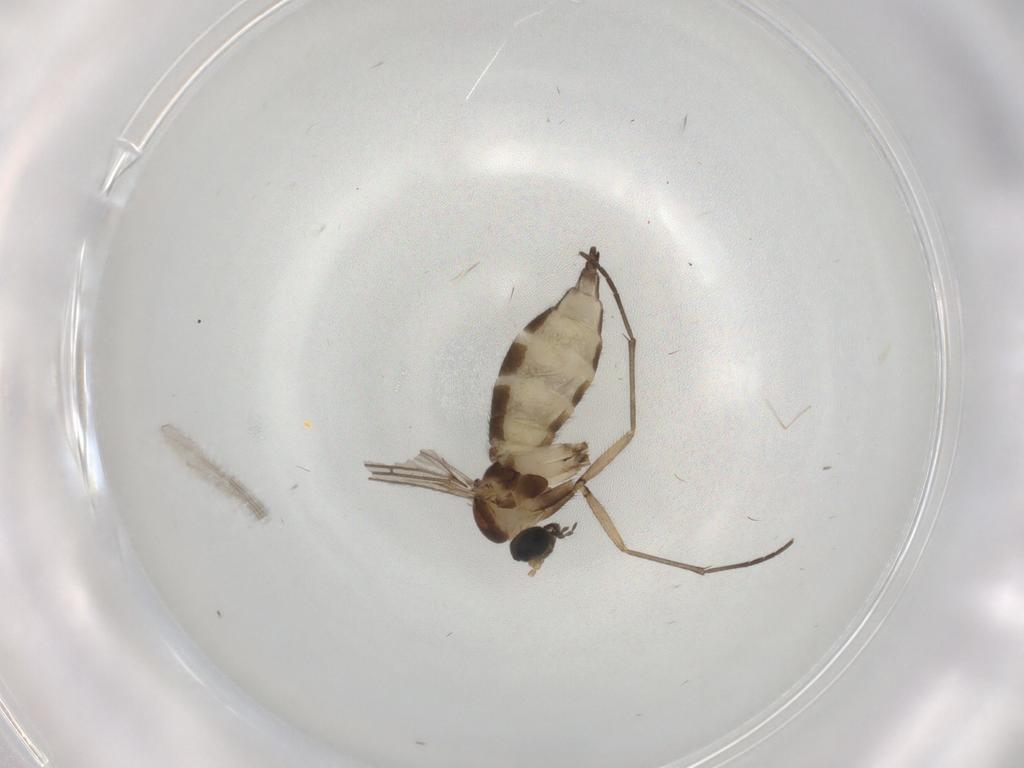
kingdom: Animalia
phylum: Arthropoda
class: Insecta
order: Diptera
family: Sciaridae
